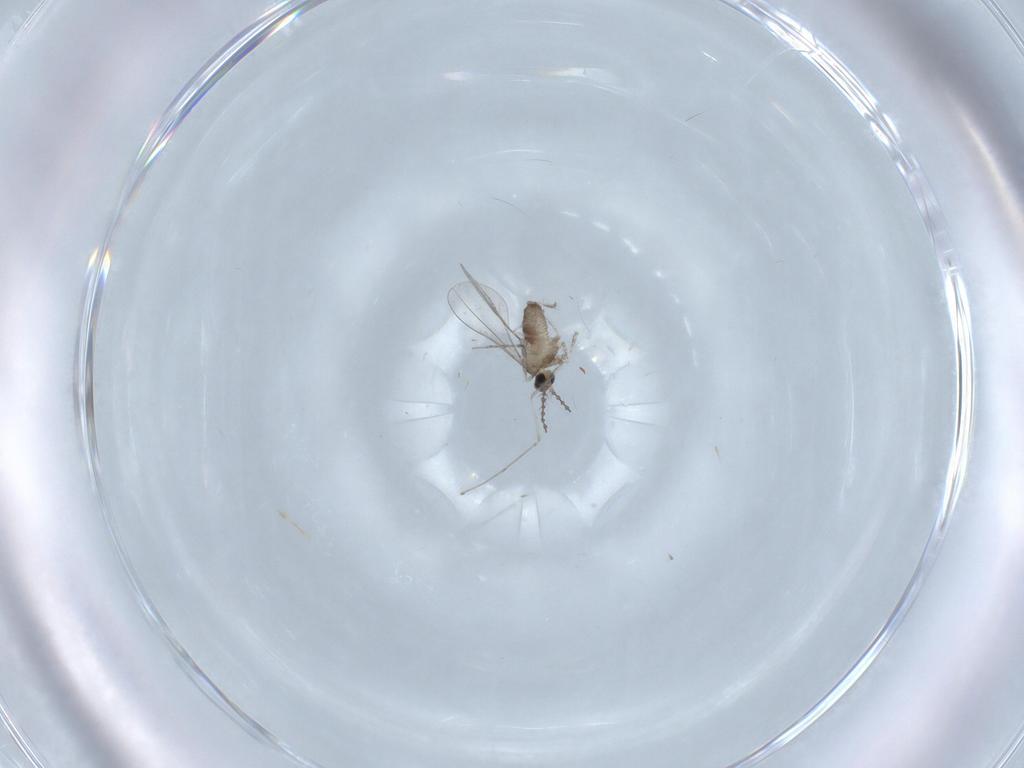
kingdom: Animalia
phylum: Arthropoda
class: Insecta
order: Diptera
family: Cecidomyiidae
